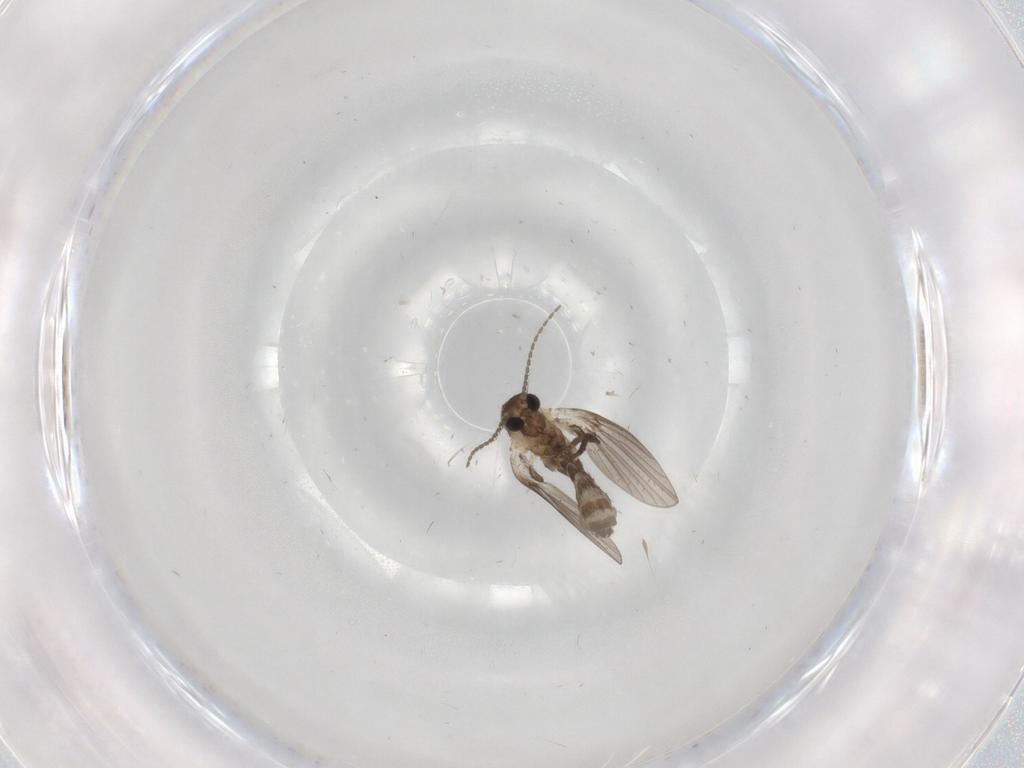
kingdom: Animalia
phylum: Arthropoda
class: Insecta
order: Diptera
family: Psychodidae
